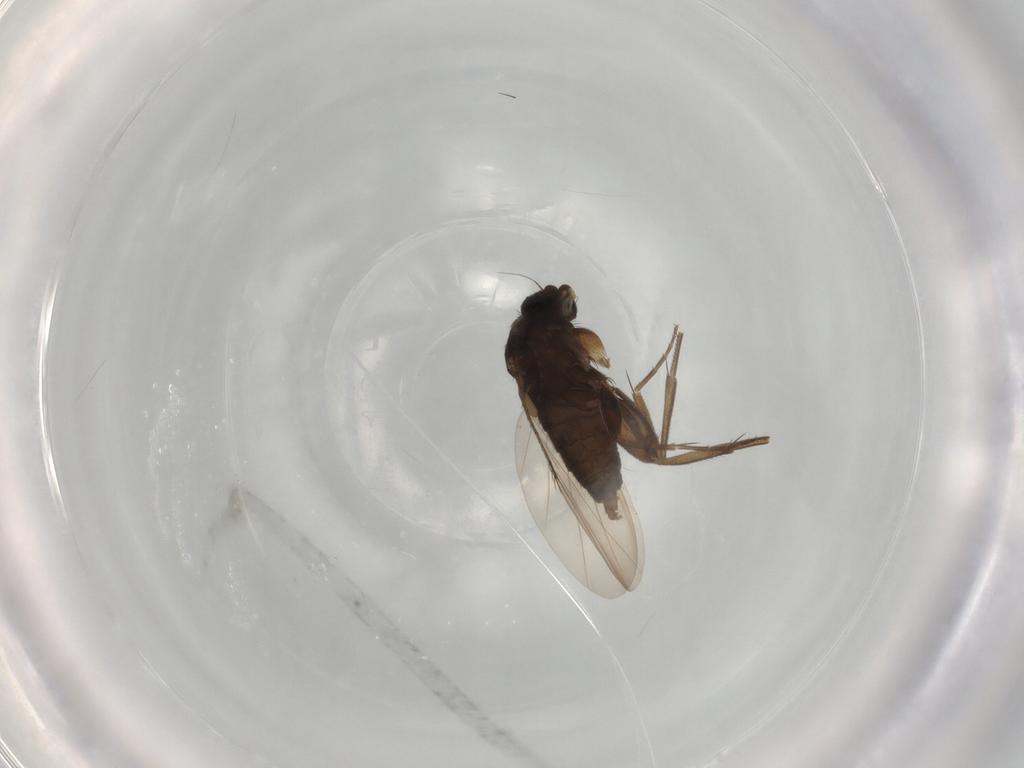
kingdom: Animalia
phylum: Arthropoda
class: Insecta
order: Diptera
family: Phoridae
